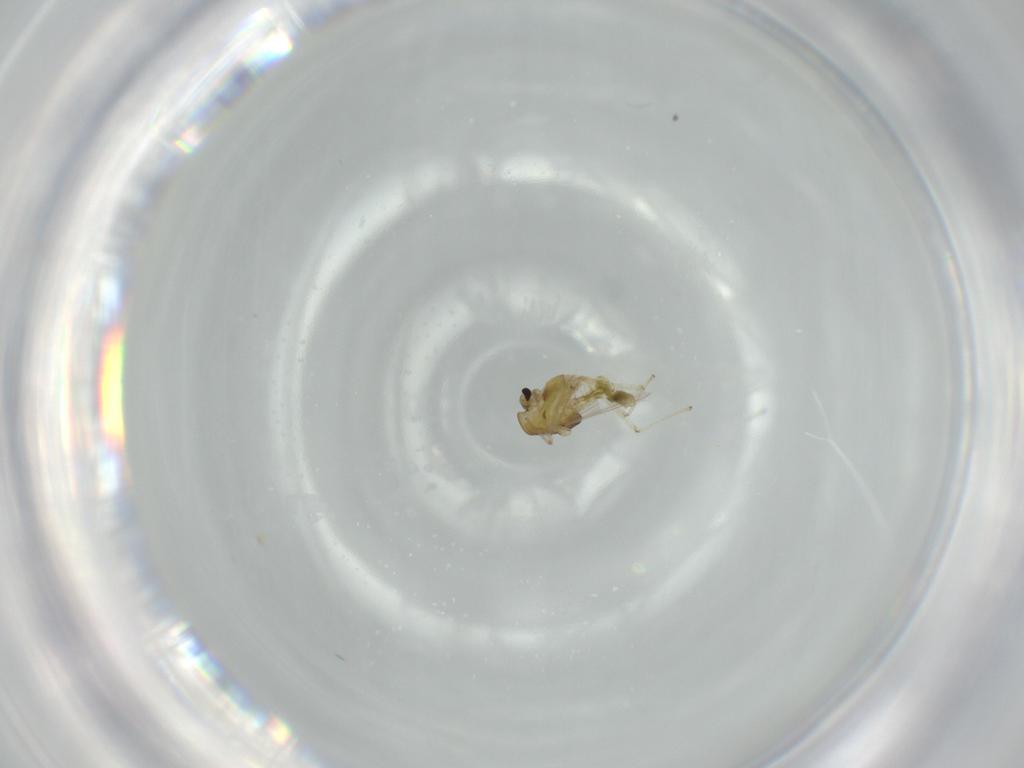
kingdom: Animalia
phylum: Arthropoda
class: Insecta
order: Diptera
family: Chironomidae
